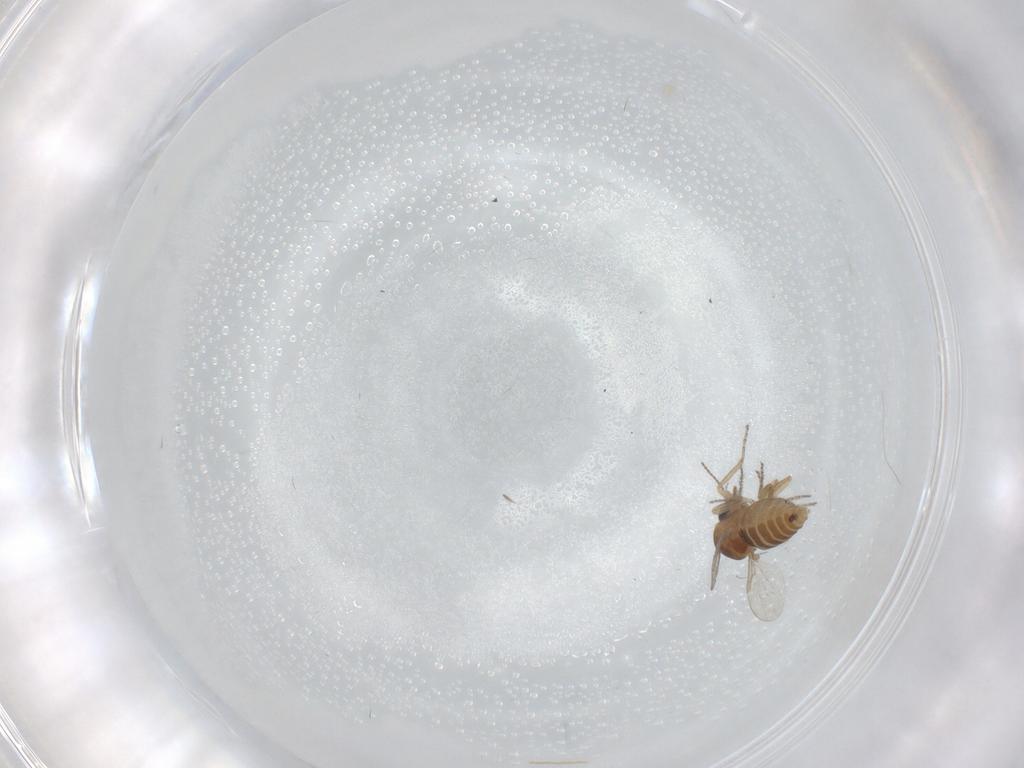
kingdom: Animalia
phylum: Arthropoda
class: Insecta
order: Diptera
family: Ceratopogonidae
